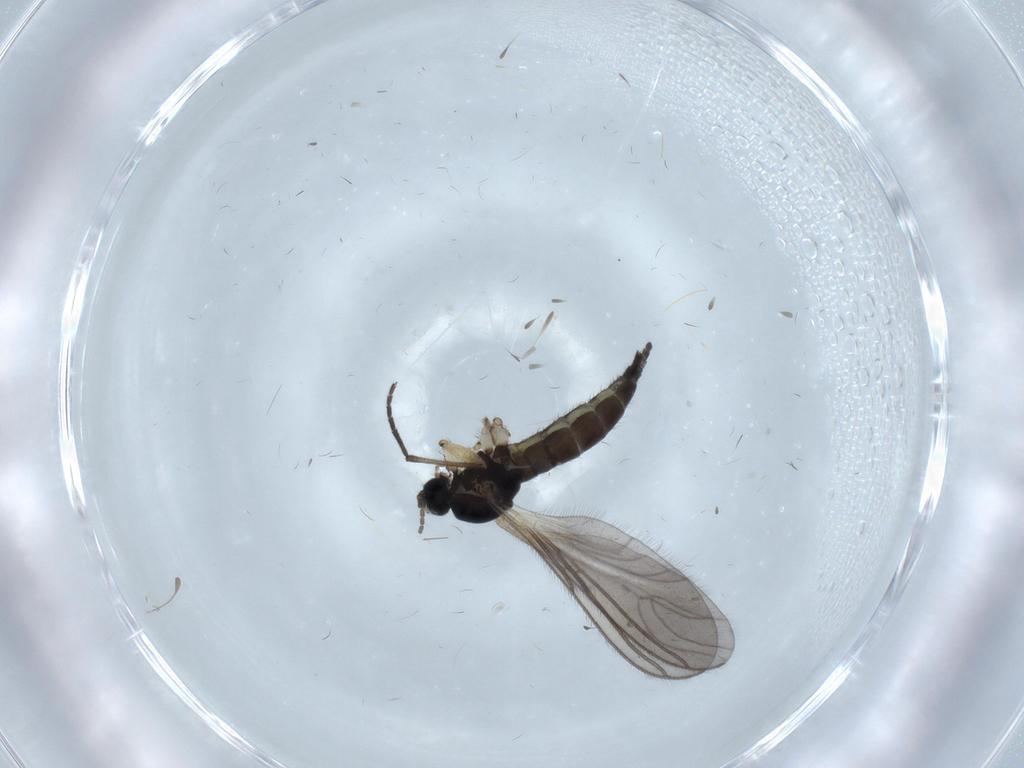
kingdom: Animalia
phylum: Arthropoda
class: Insecta
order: Diptera
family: Sciaridae
